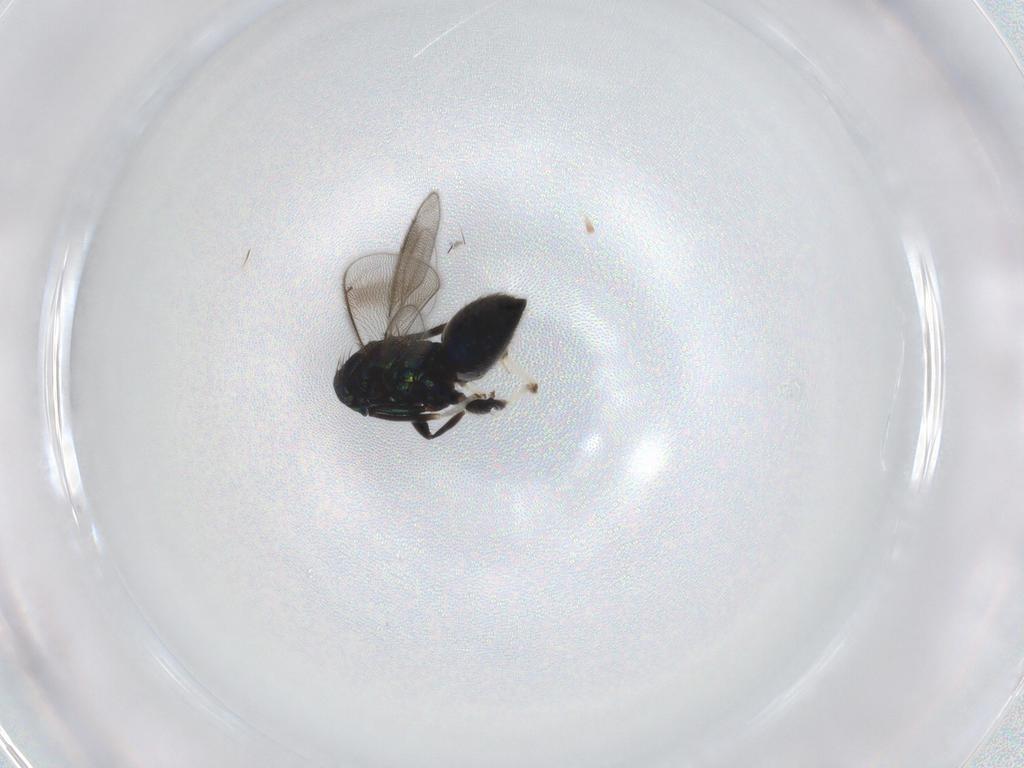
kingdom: Animalia
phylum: Arthropoda
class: Insecta
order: Hymenoptera
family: Eulophidae
